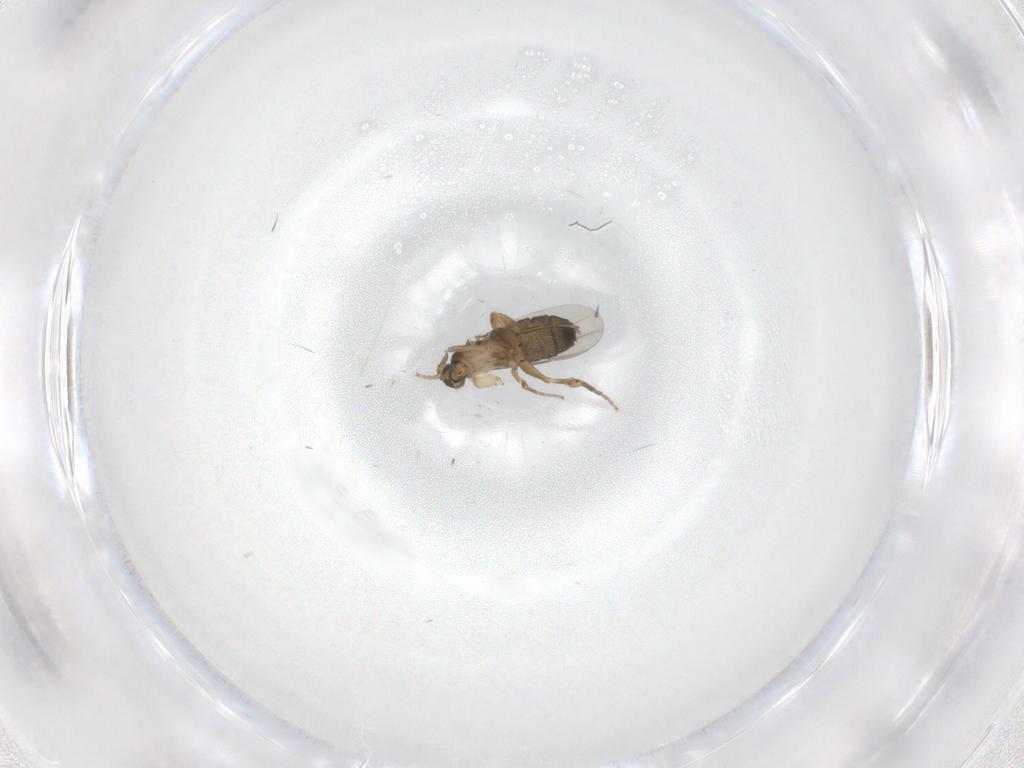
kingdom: Animalia
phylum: Arthropoda
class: Insecta
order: Diptera
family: Phoridae
